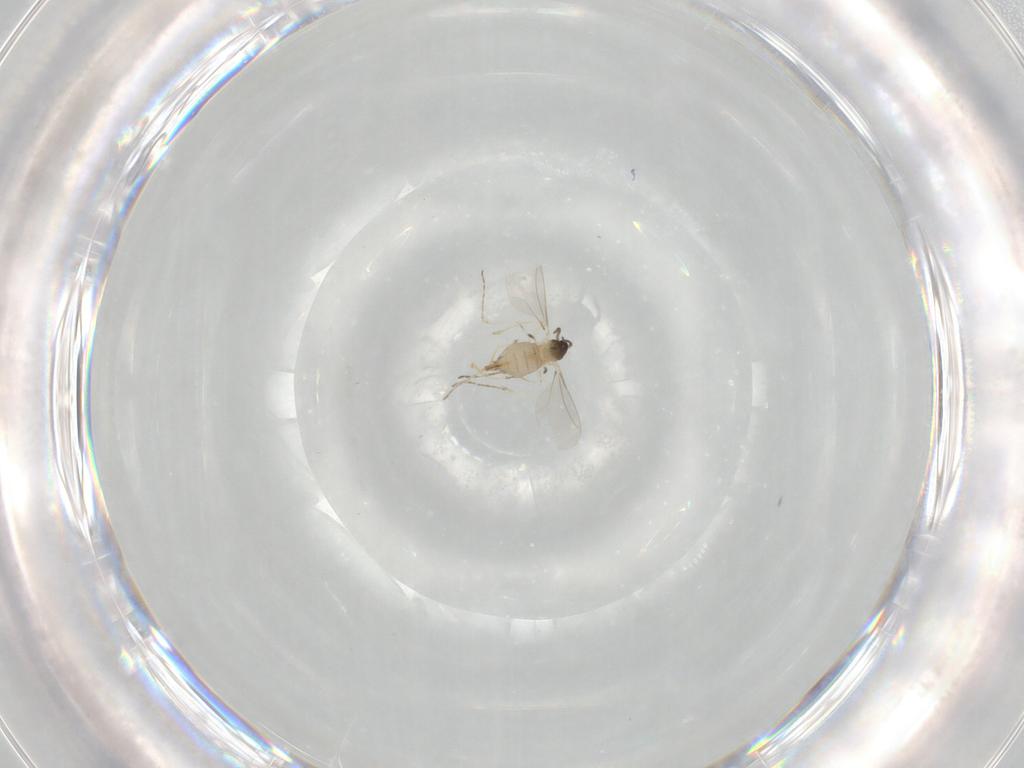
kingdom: Animalia
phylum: Arthropoda
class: Insecta
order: Diptera
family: Cecidomyiidae
